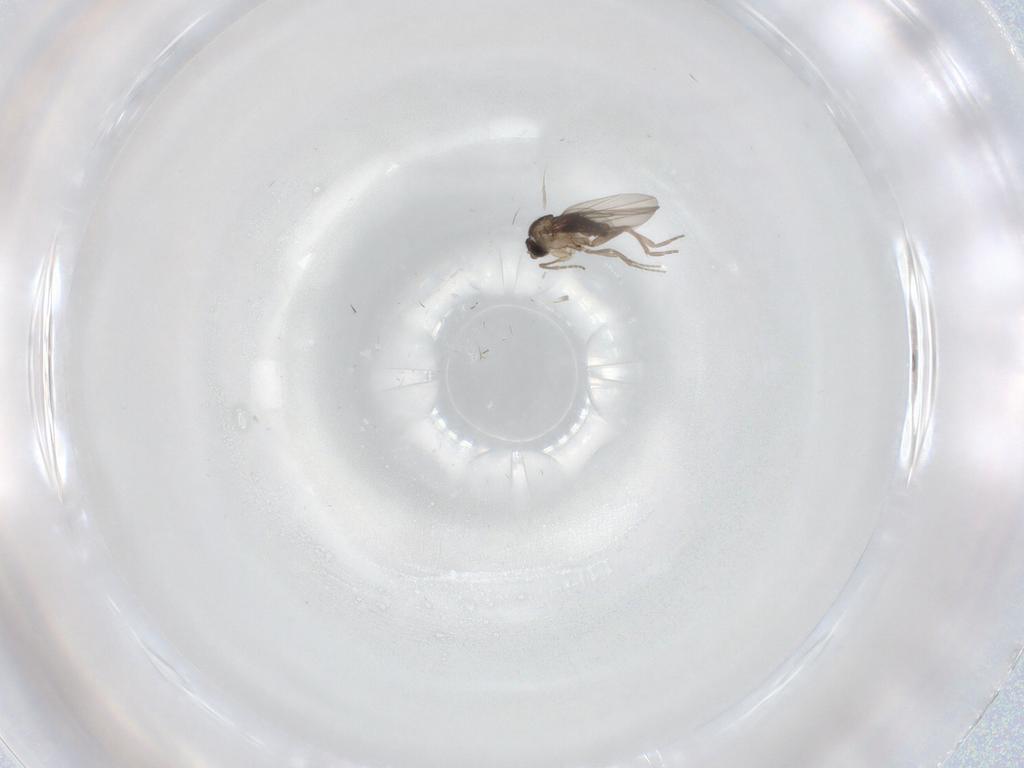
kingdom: Animalia
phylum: Arthropoda
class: Insecta
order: Diptera
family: Phoridae
